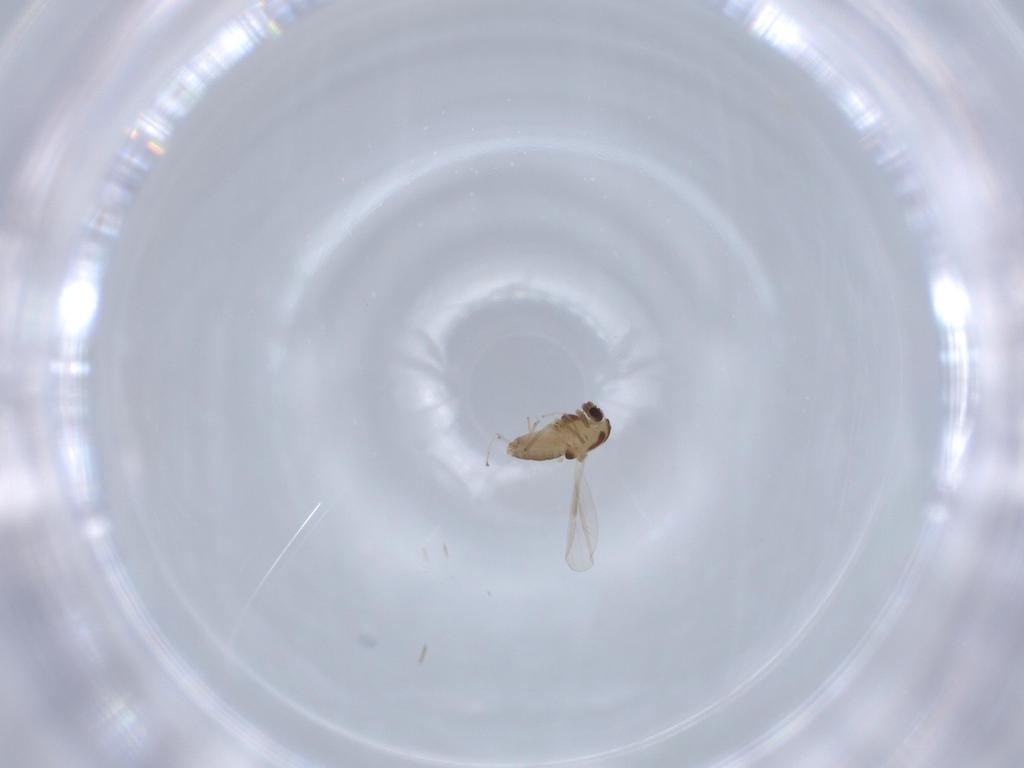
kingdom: Animalia
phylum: Arthropoda
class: Insecta
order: Diptera
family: Chironomidae
